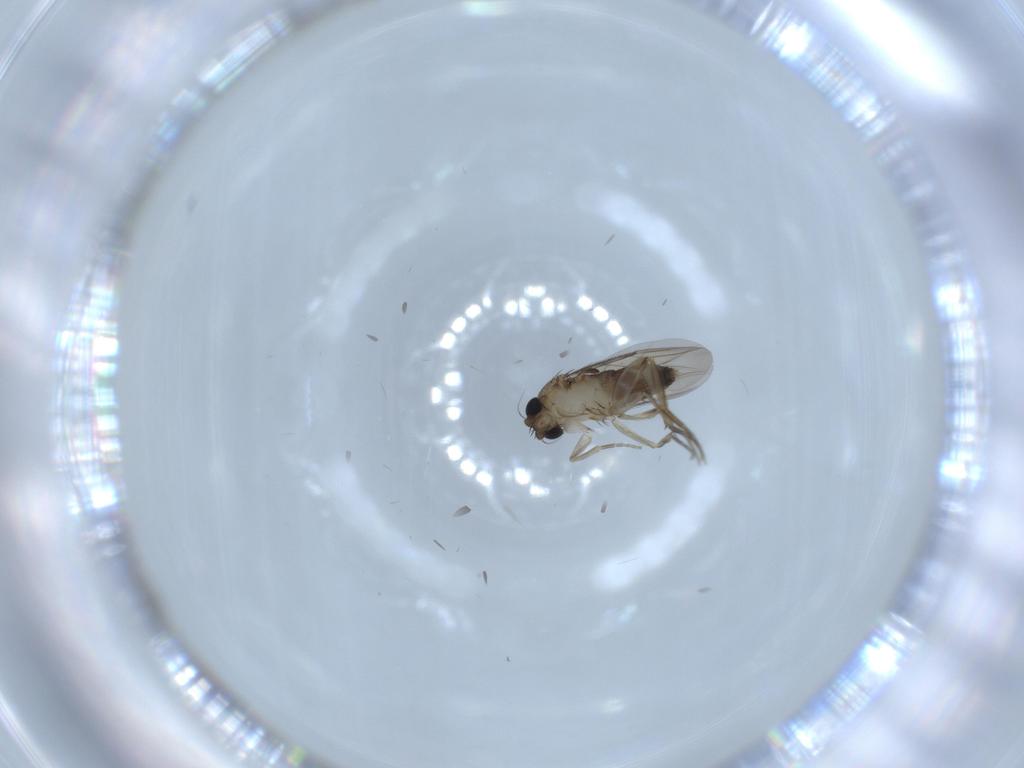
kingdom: Animalia
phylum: Arthropoda
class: Insecta
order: Diptera
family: Phoridae
